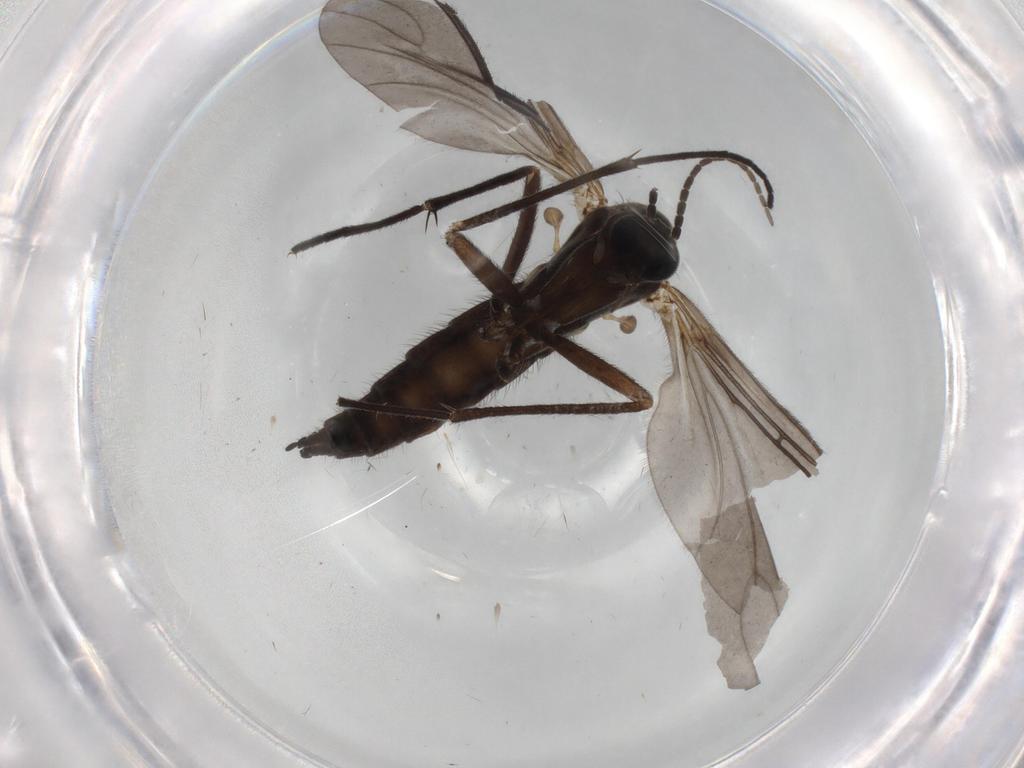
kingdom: Animalia
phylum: Arthropoda
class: Insecta
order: Diptera
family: Sciaridae
